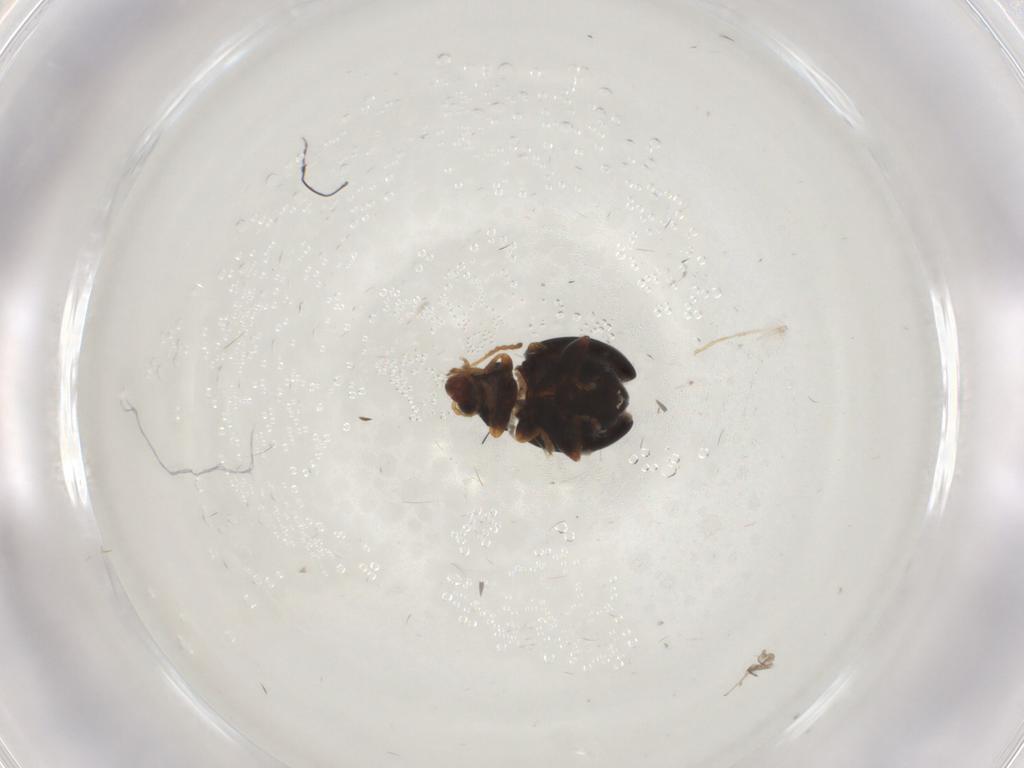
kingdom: Animalia
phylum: Arthropoda
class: Insecta
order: Coleoptera
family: Chrysomelidae
